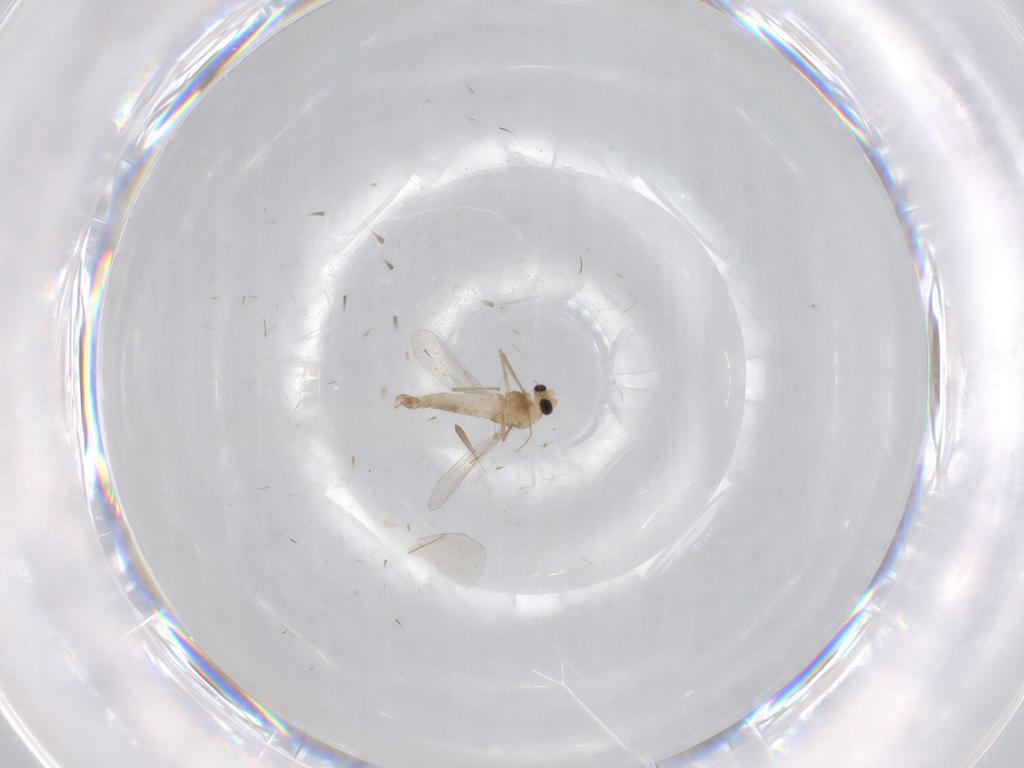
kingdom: Animalia
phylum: Arthropoda
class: Insecta
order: Diptera
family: Chironomidae
